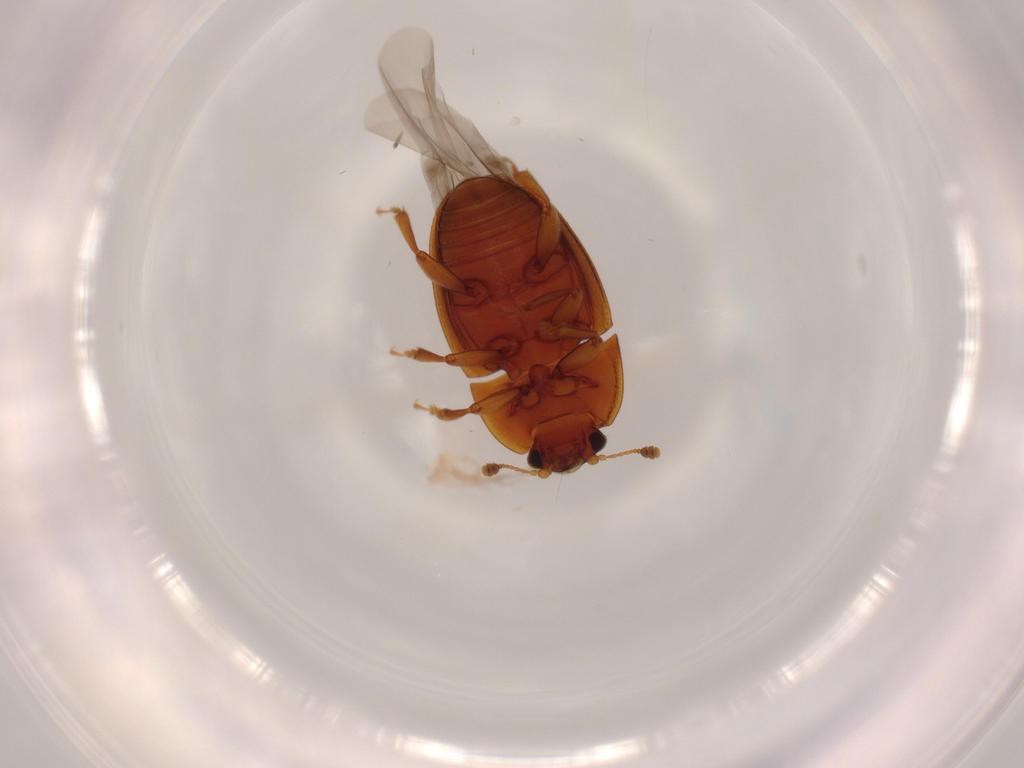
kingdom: Animalia
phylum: Arthropoda
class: Insecta
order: Coleoptera
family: Nitidulidae
